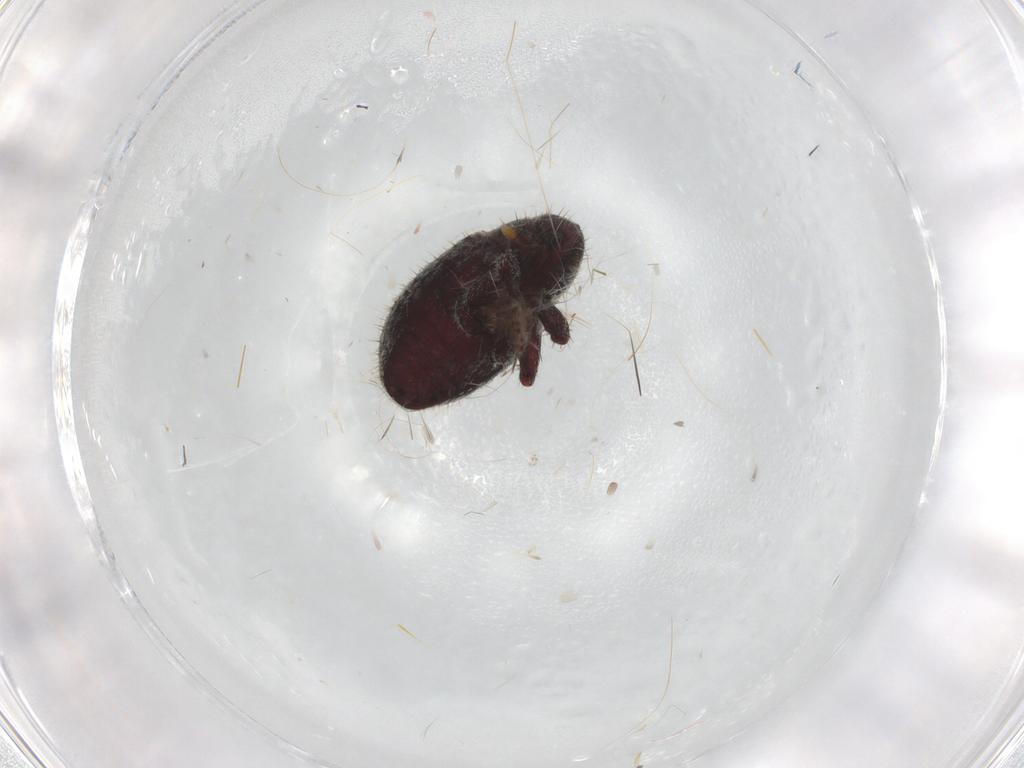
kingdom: Animalia
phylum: Arthropoda
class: Insecta
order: Coleoptera
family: Curculionidae
